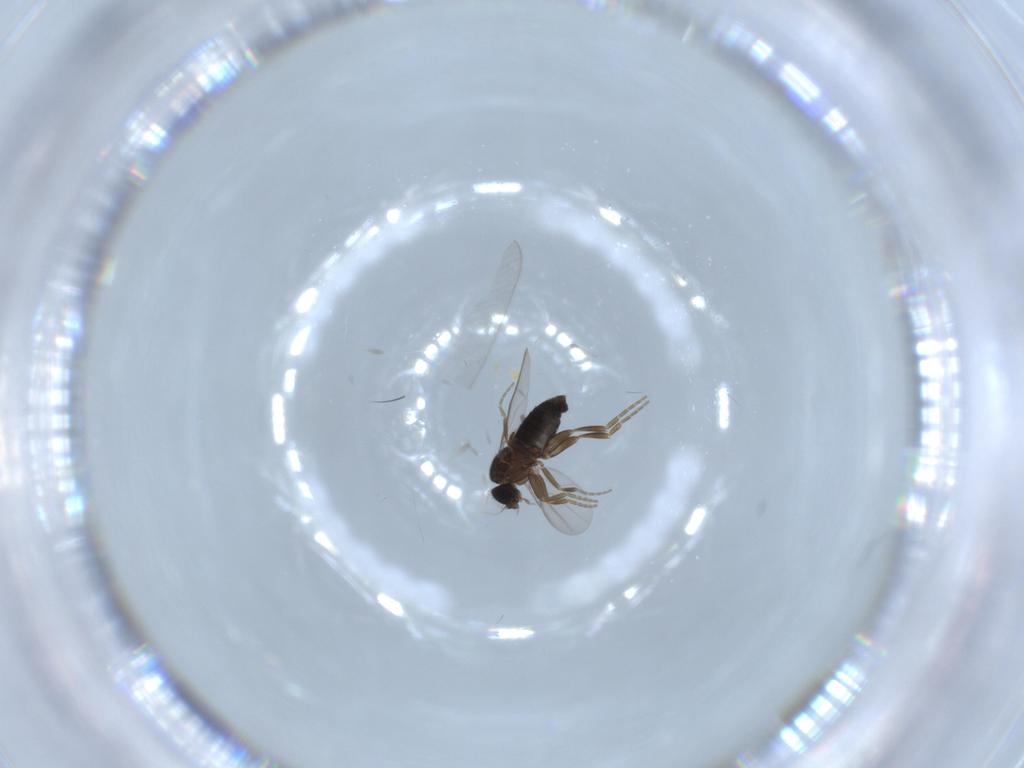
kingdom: Animalia
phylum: Arthropoda
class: Insecta
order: Diptera
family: Phoridae
